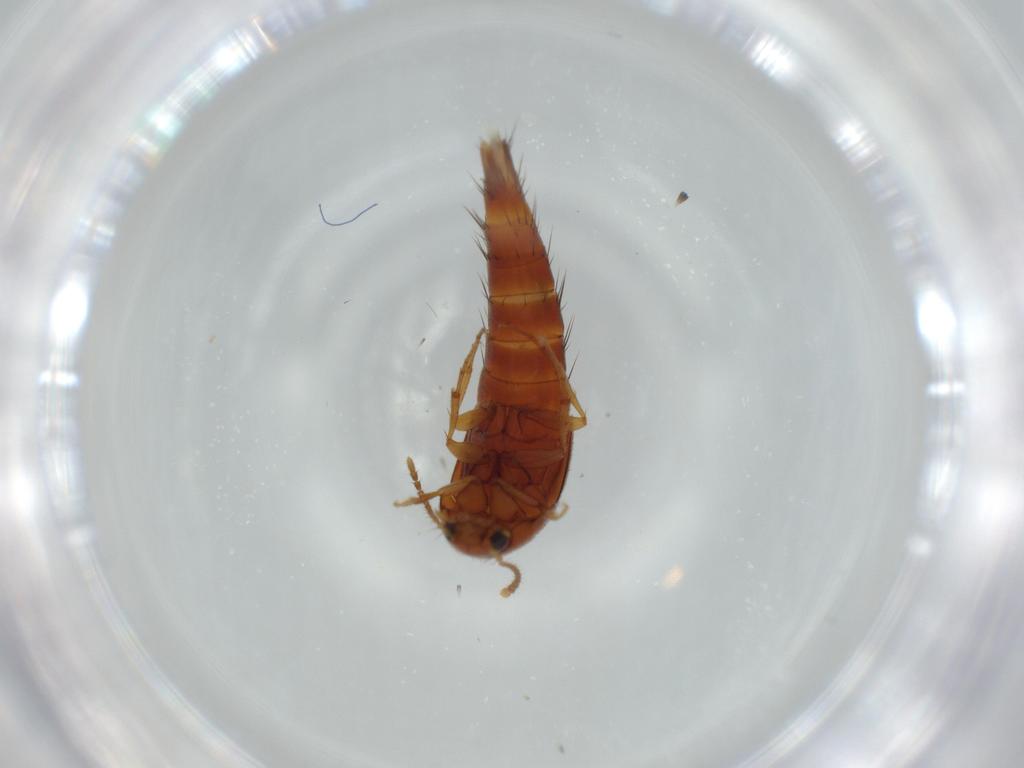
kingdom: Animalia
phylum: Arthropoda
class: Insecta
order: Coleoptera
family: Staphylinidae
